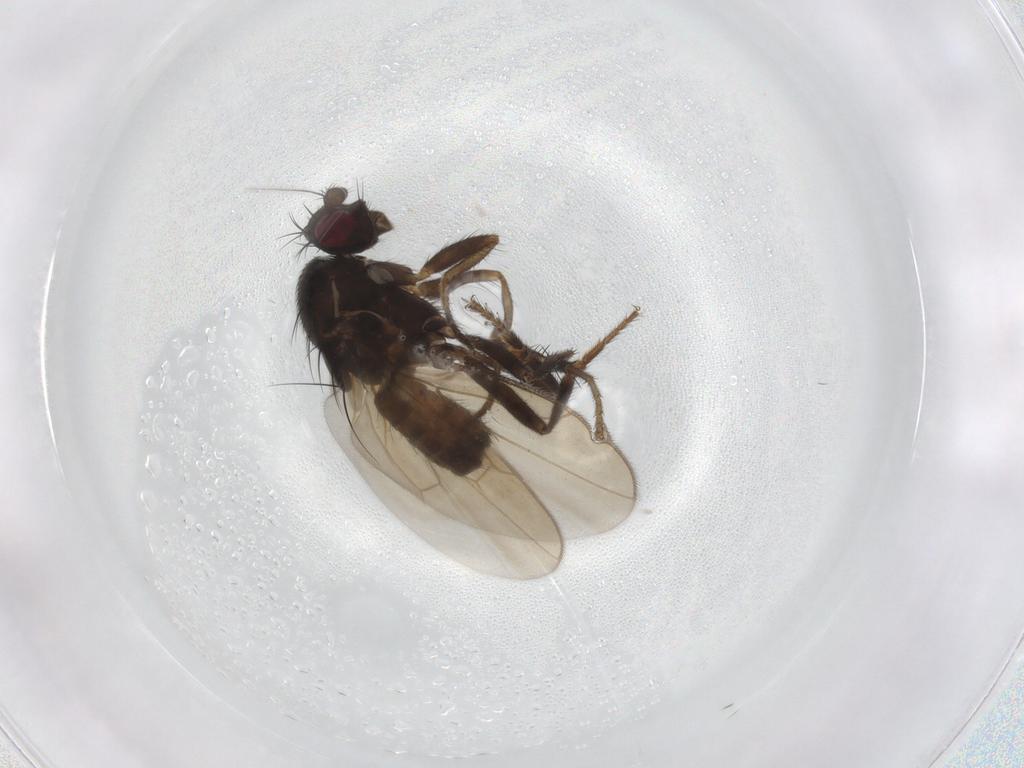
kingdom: Animalia
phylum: Arthropoda
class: Insecta
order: Diptera
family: Sphaeroceridae
